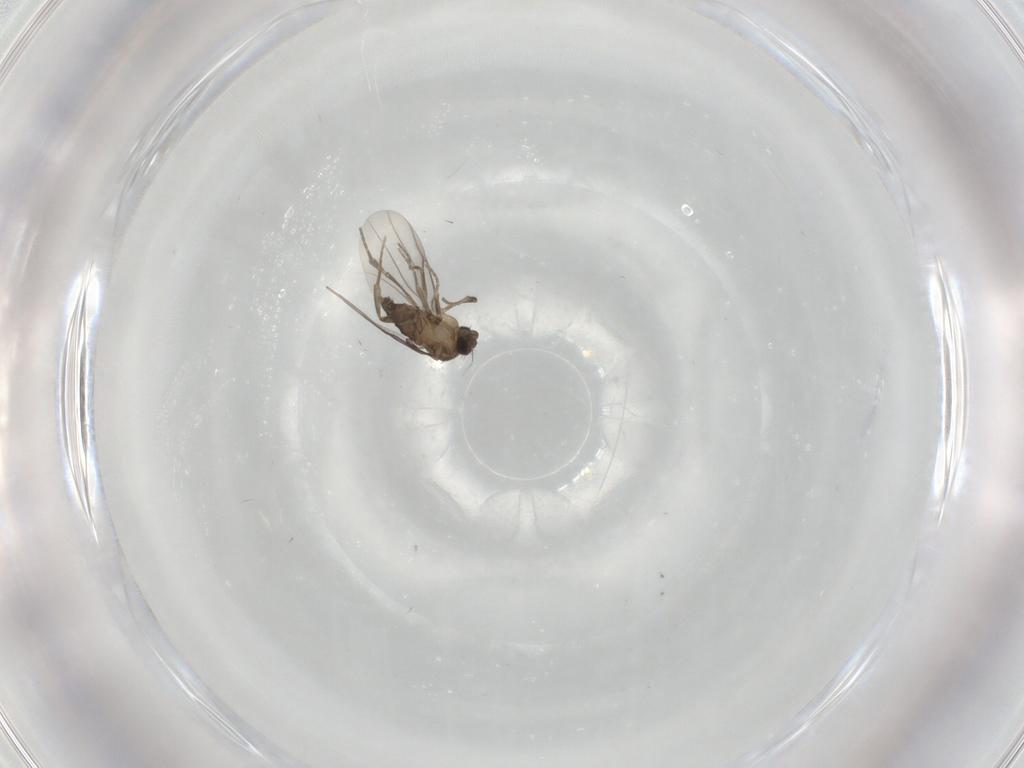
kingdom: Animalia
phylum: Arthropoda
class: Insecta
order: Diptera
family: Phoridae
